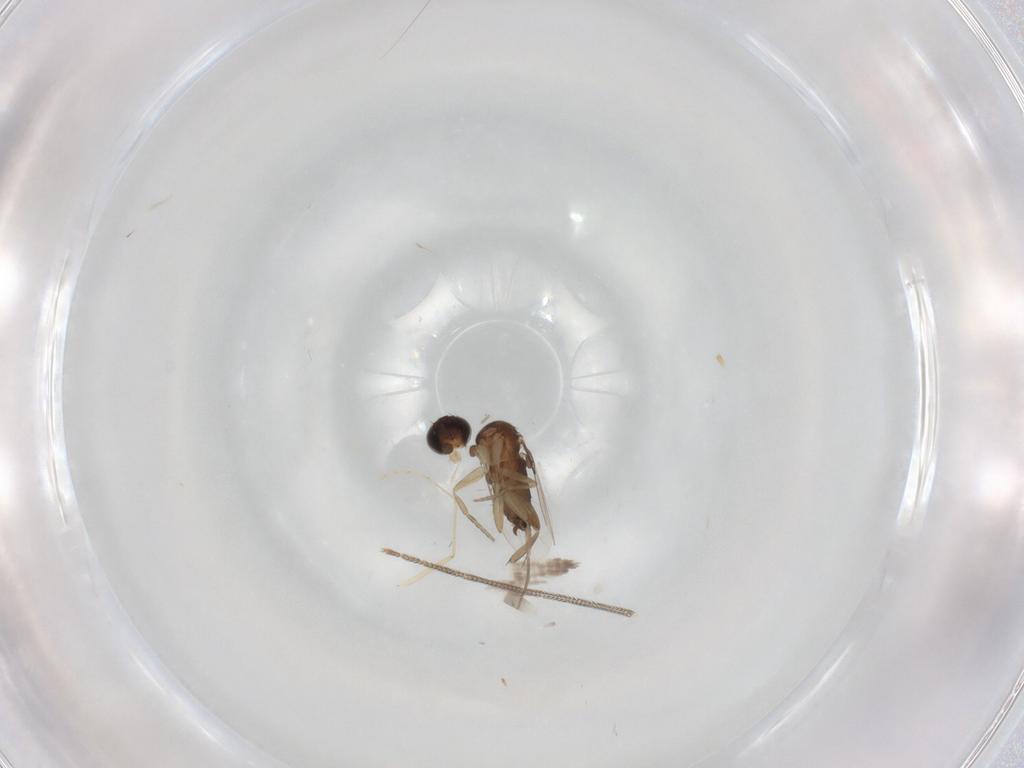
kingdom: Animalia
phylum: Arthropoda
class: Insecta
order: Diptera
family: Phoridae
